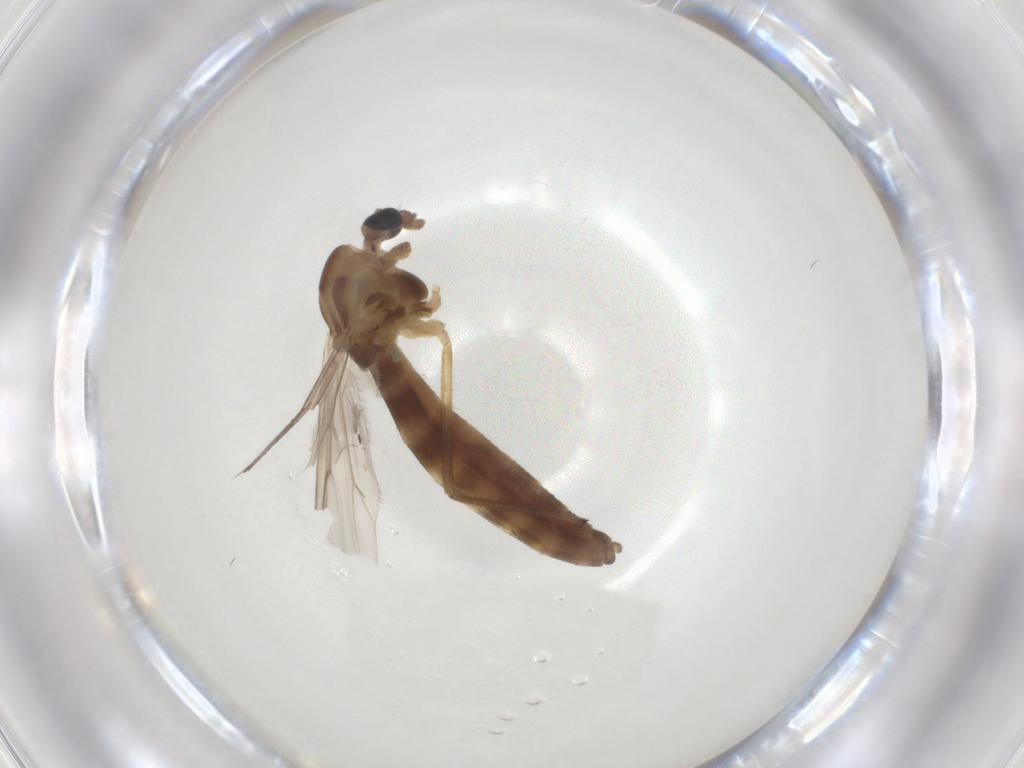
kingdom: Animalia
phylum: Arthropoda
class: Insecta
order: Diptera
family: Chironomidae
